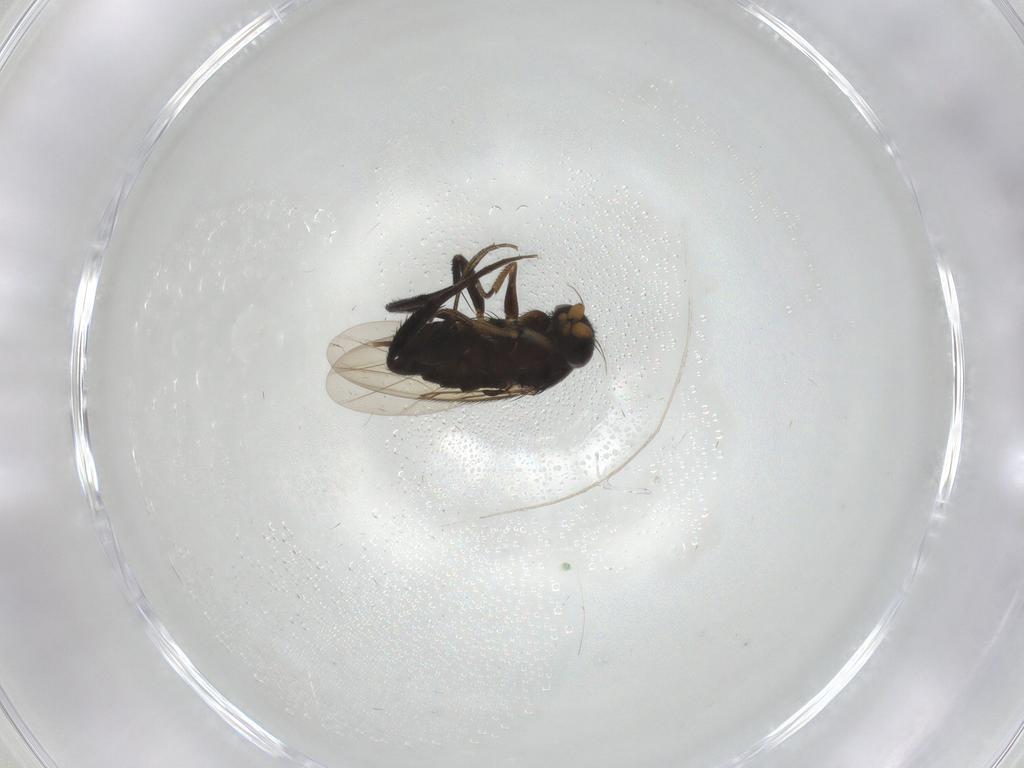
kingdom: Animalia
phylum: Arthropoda
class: Insecta
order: Diptera
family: Phoridae
